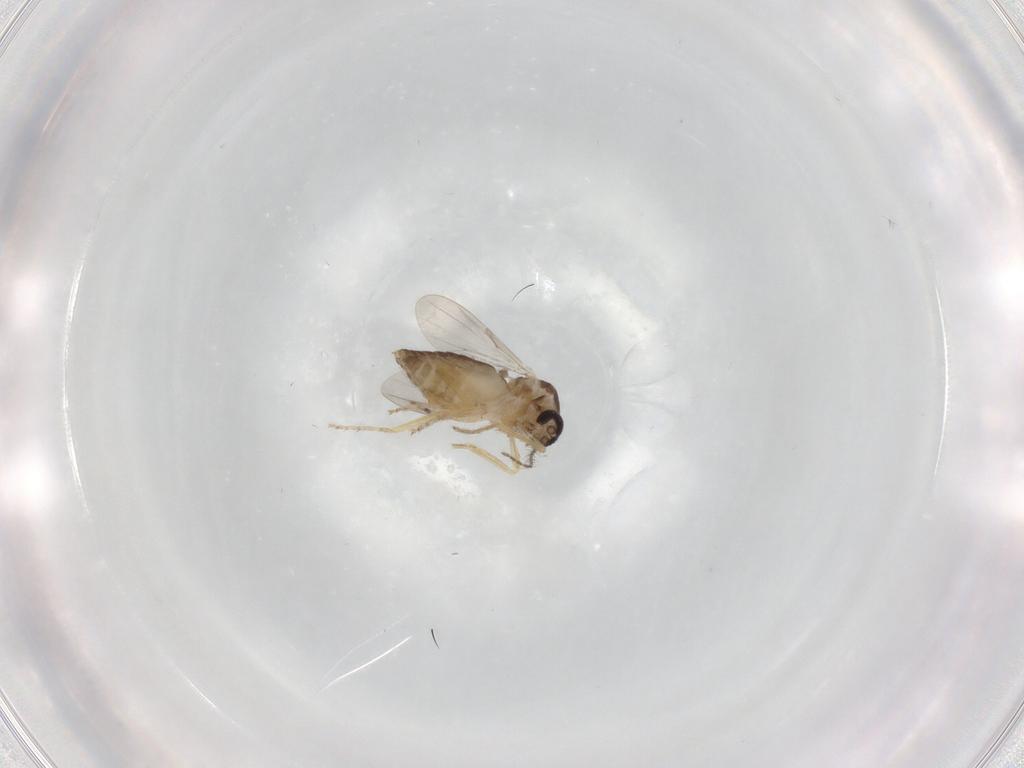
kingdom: Animalia
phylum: Arthropoda
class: Insecta
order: Diptera
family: Ceratopogonidae
